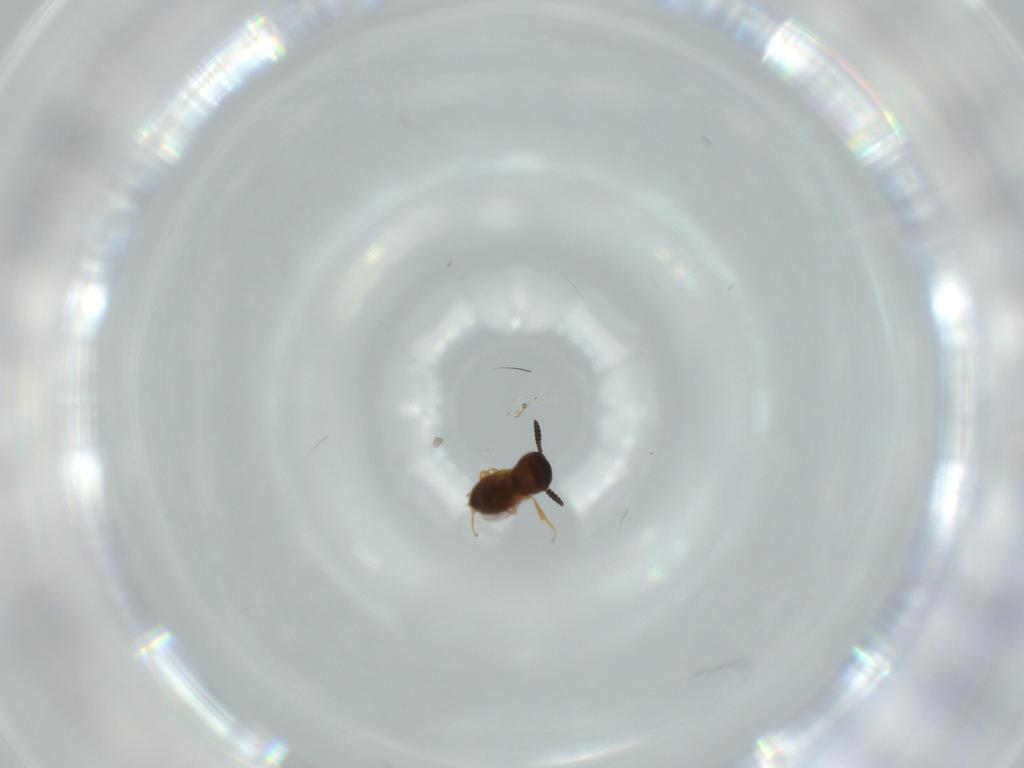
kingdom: Animalia
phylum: Arthropoda
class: Insecta
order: Hymenoptera
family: Scelionidae
